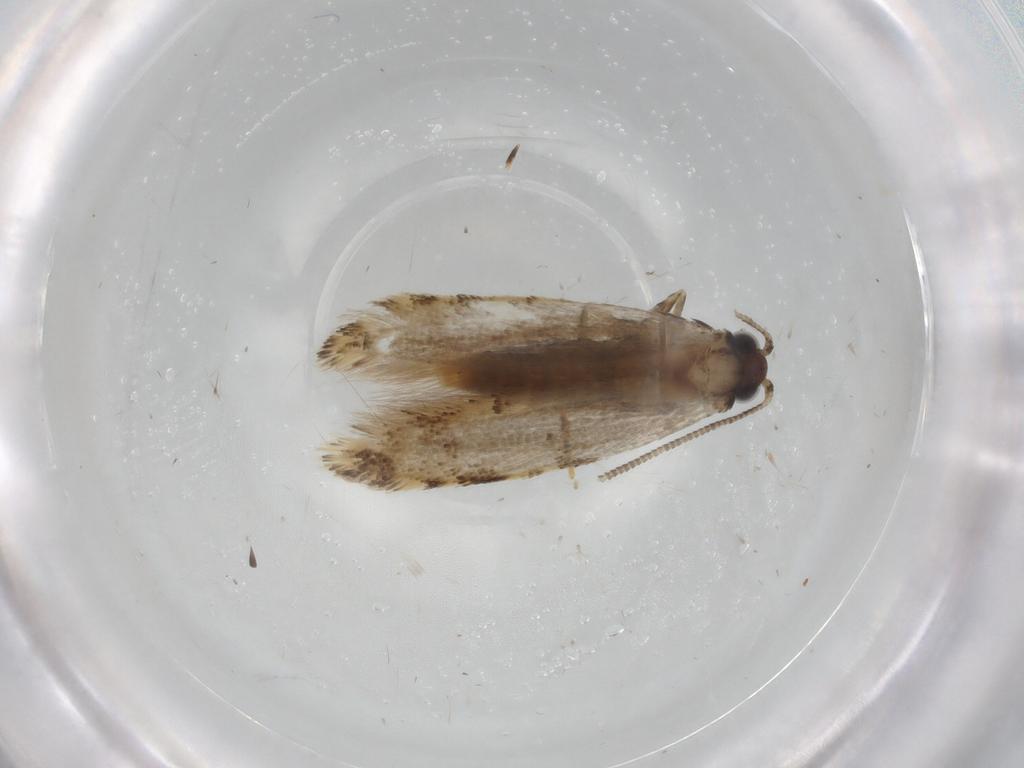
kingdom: Animalia
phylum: Arthropoda
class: Insecta
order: Lepidoptera
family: Tineidae
